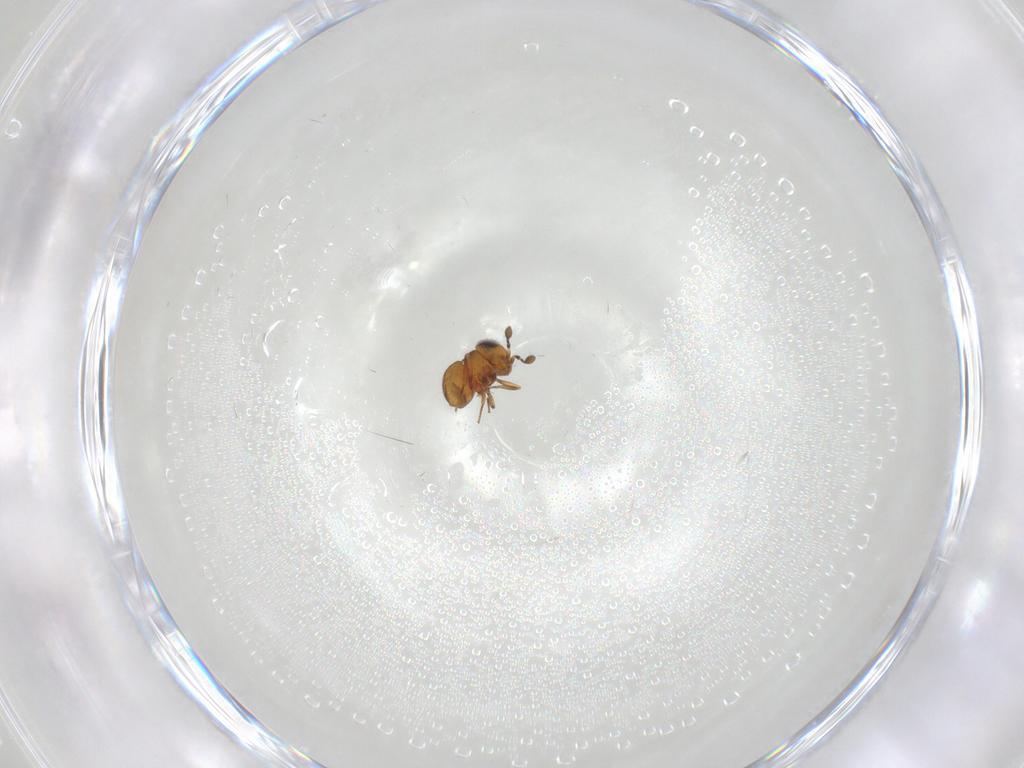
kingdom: Animalia
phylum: Arthropoda
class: Insecta
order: Hymenoptera
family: Scelionidae
